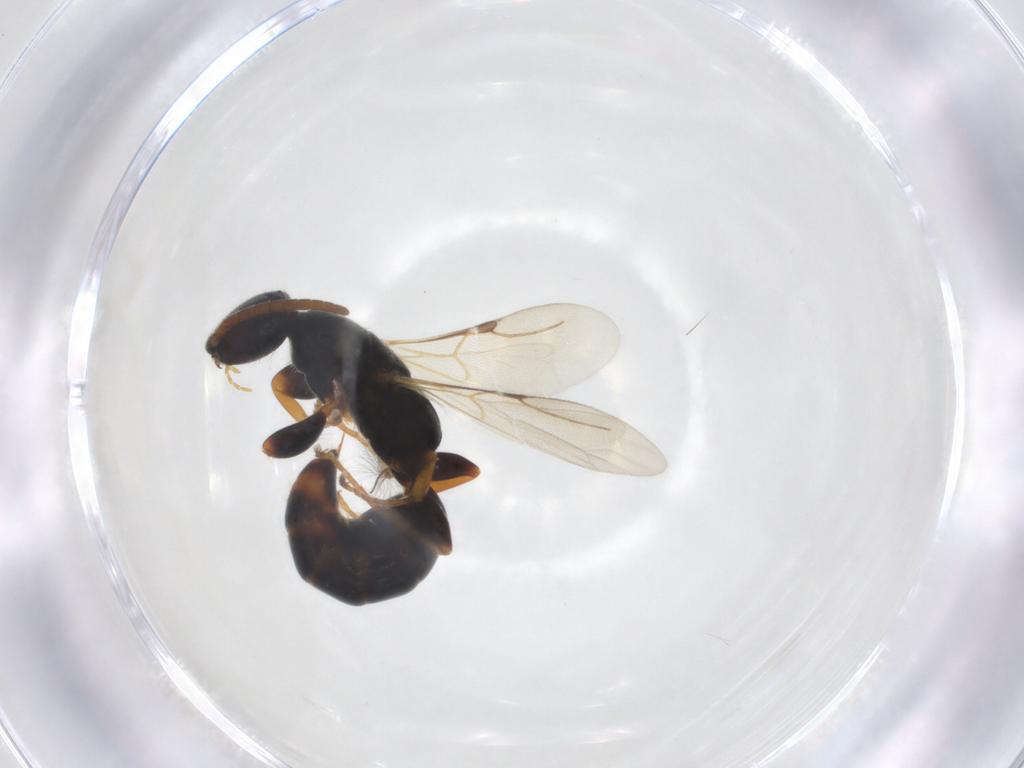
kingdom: Animalia
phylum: Arthropoda
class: Insecta
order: Hymenoptera
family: Bethylidae
